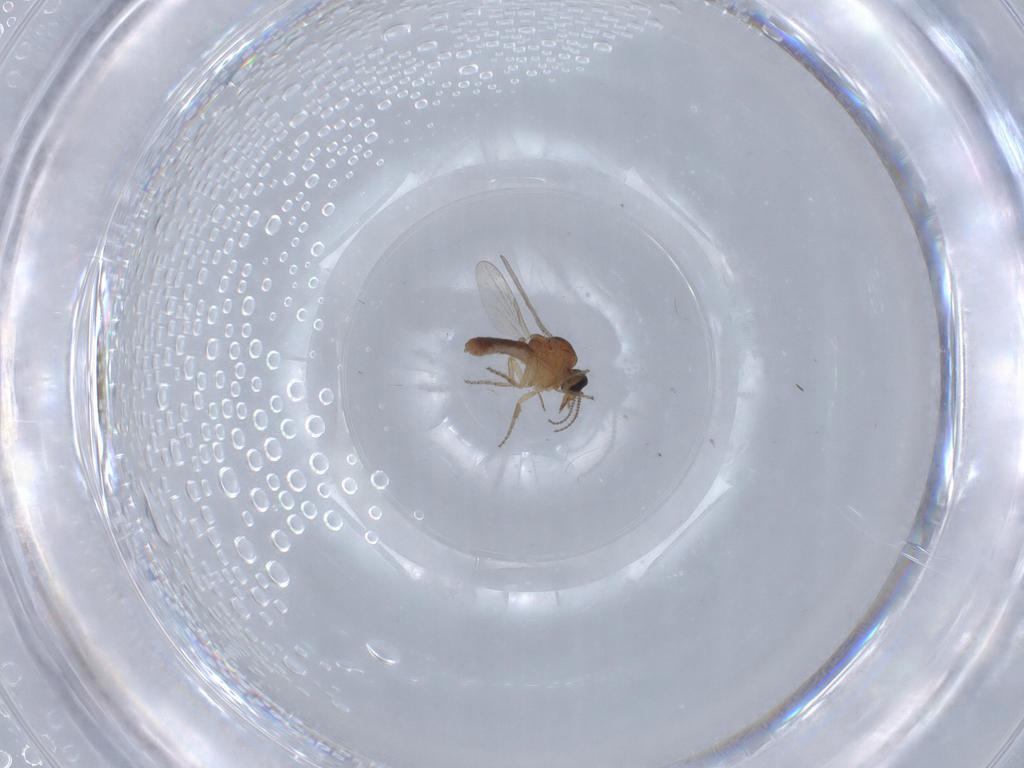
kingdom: Animalia
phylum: Arthropoda
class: Insecta
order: Diptera
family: Ceratopogonidae
